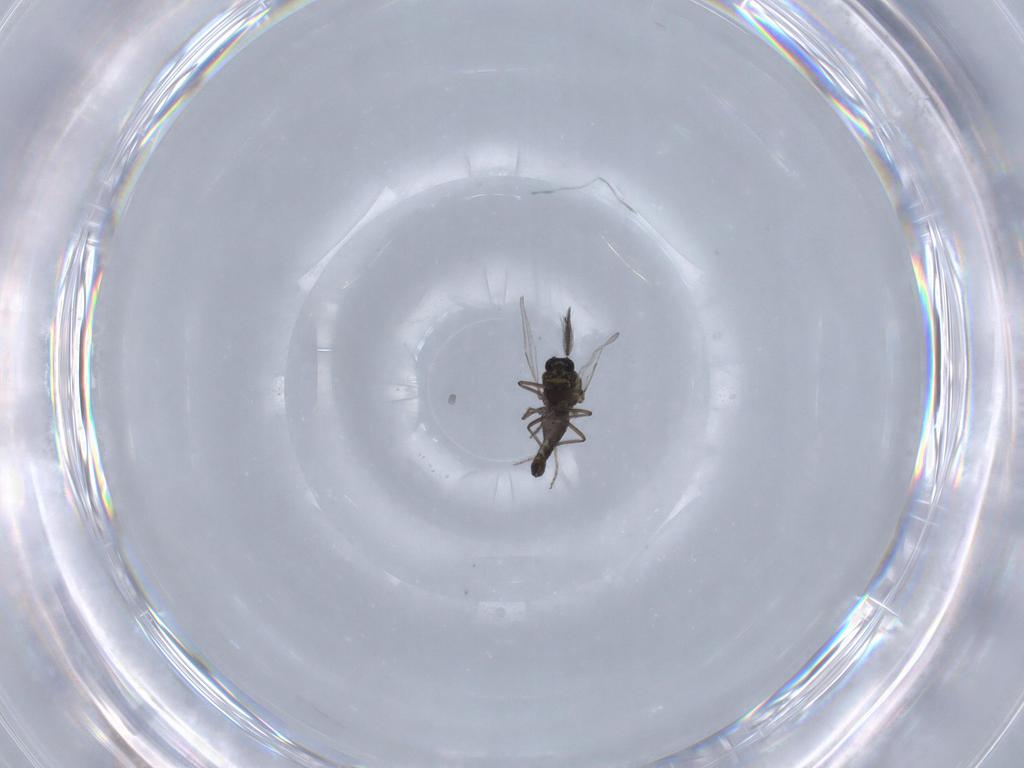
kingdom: Animalia
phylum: Arthropoda
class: Insecta
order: Diptera
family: Ceratopogonidae
